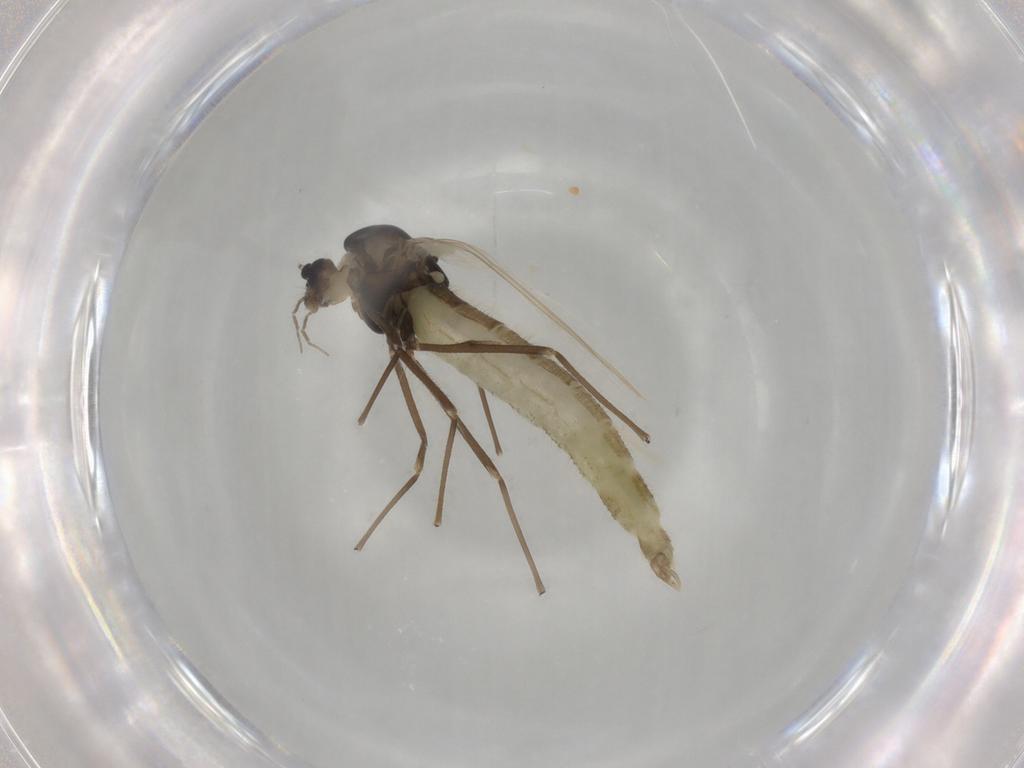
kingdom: Animalia
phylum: Arthropoda
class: Insecta
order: Diptera
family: Chironomidae
